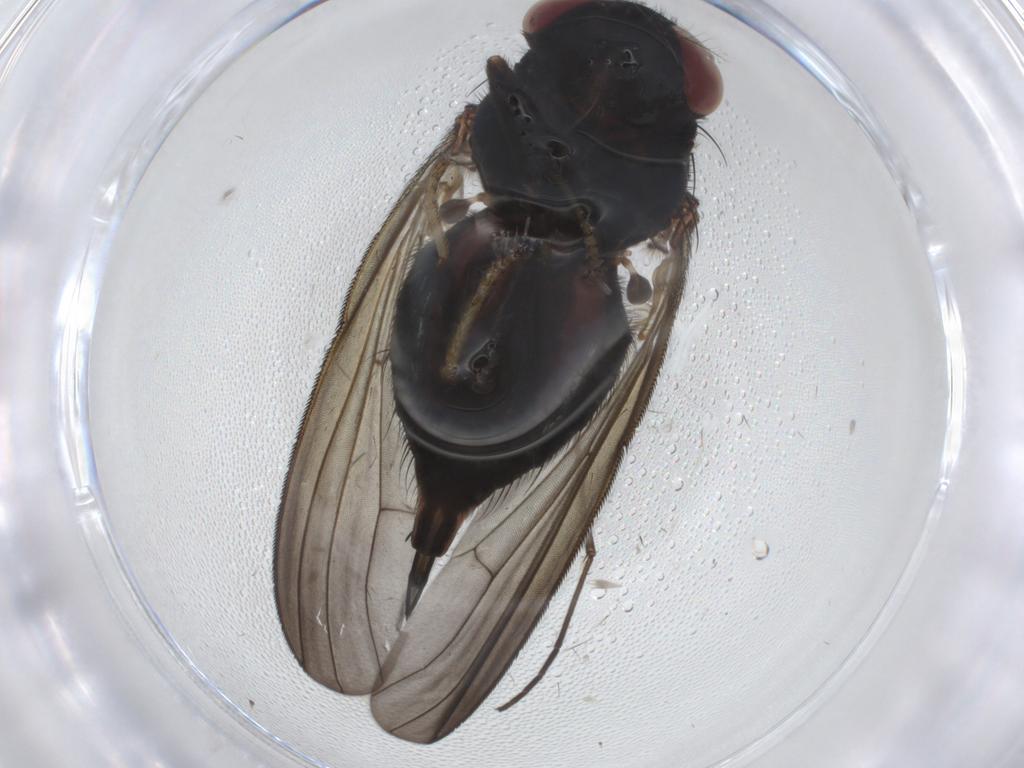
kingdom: Animalia
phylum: Arthropoda
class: Insecta
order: Diptera
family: Lonchaeidae
